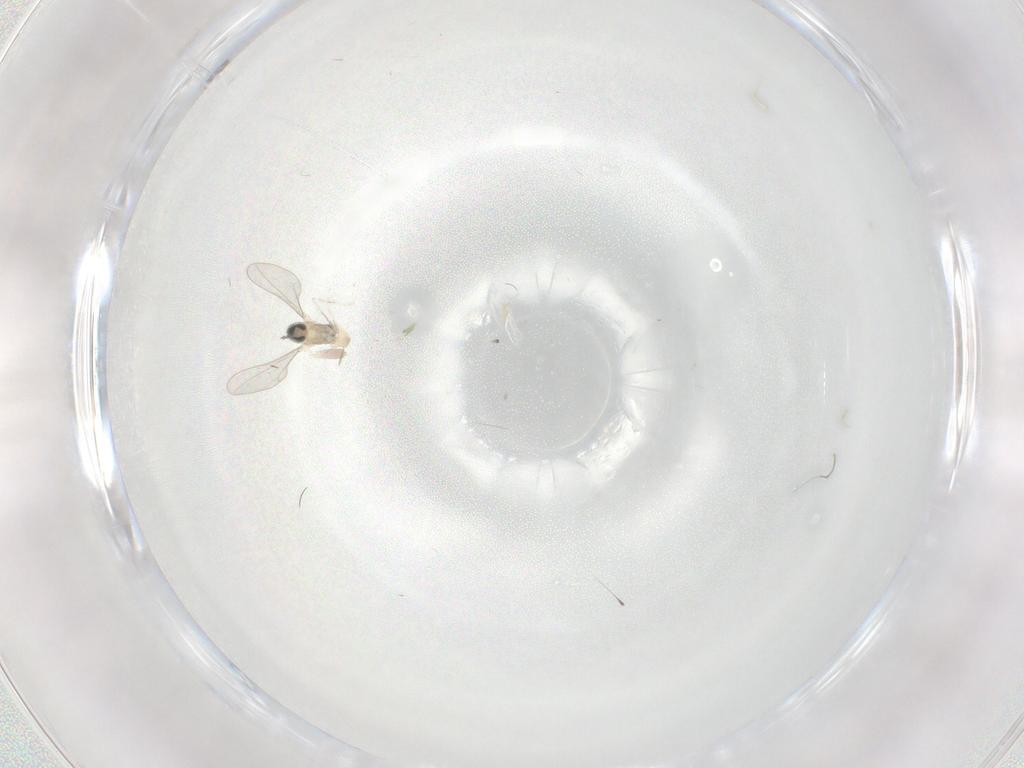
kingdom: Animalia
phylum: Arthropoda
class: Insecta
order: Diptera
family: Cecidomyiidae
